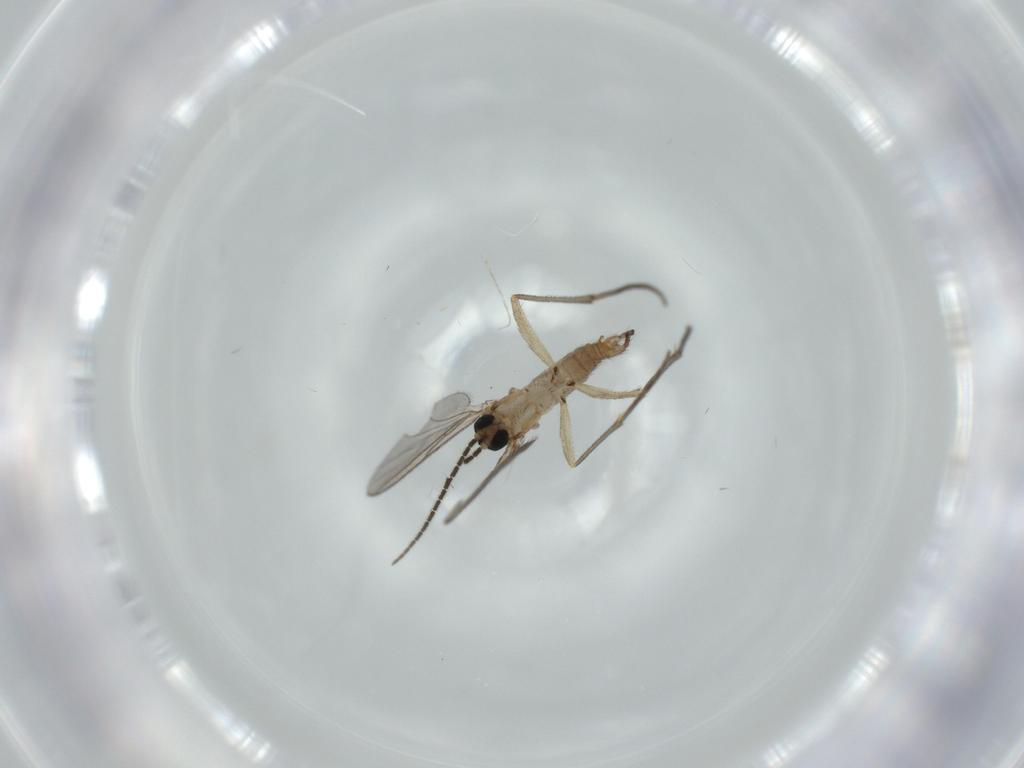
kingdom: Animalia
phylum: Arthropoda
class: Insecta
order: Diptera
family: Sciaridae
